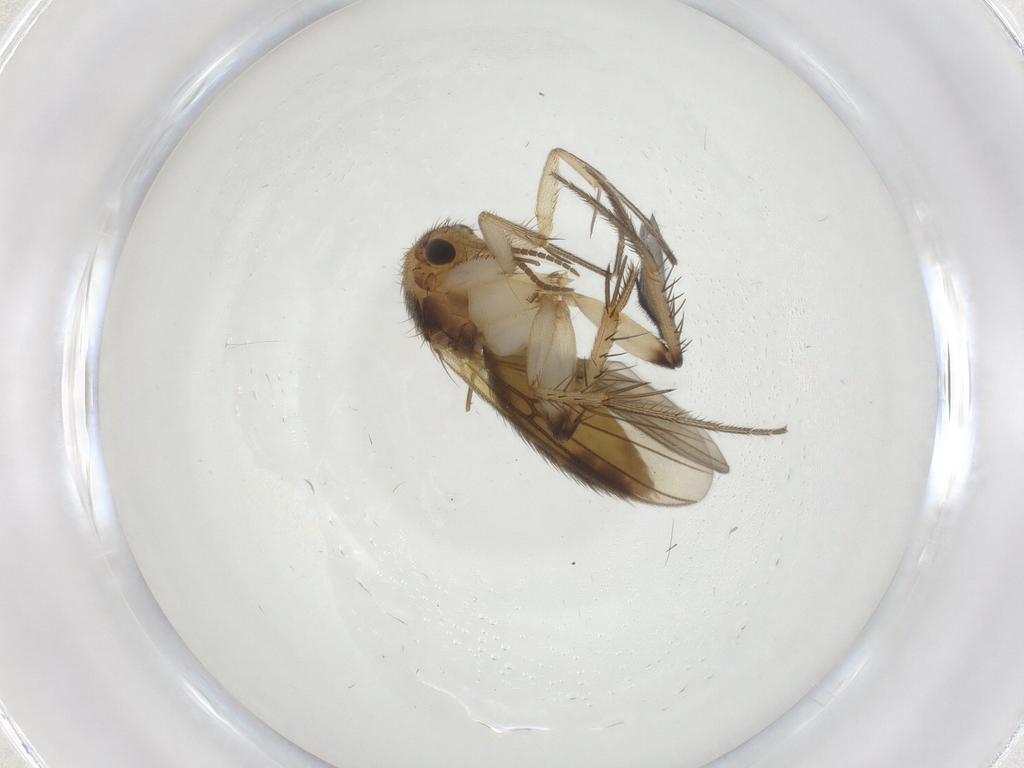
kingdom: Animalia
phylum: Arthropoda
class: Insecta
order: Diptera
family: Mycetophilidae
